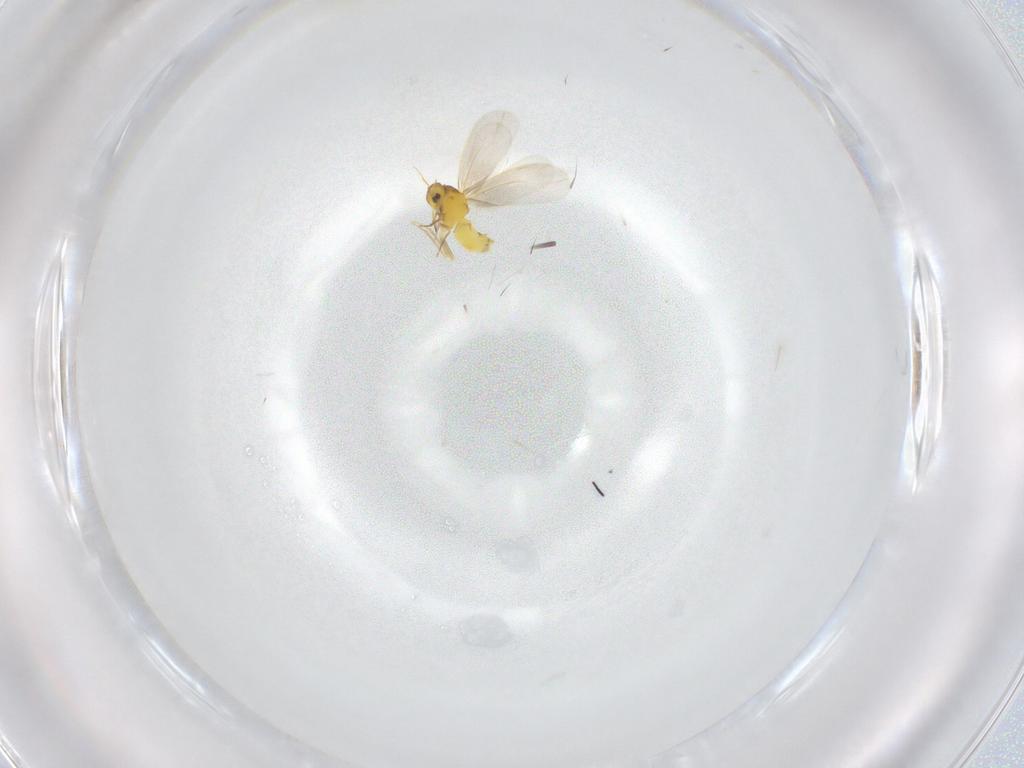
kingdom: Animalia
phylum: Arthropoda
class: Insecta
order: Hemiptera
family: Aleyrodidae
